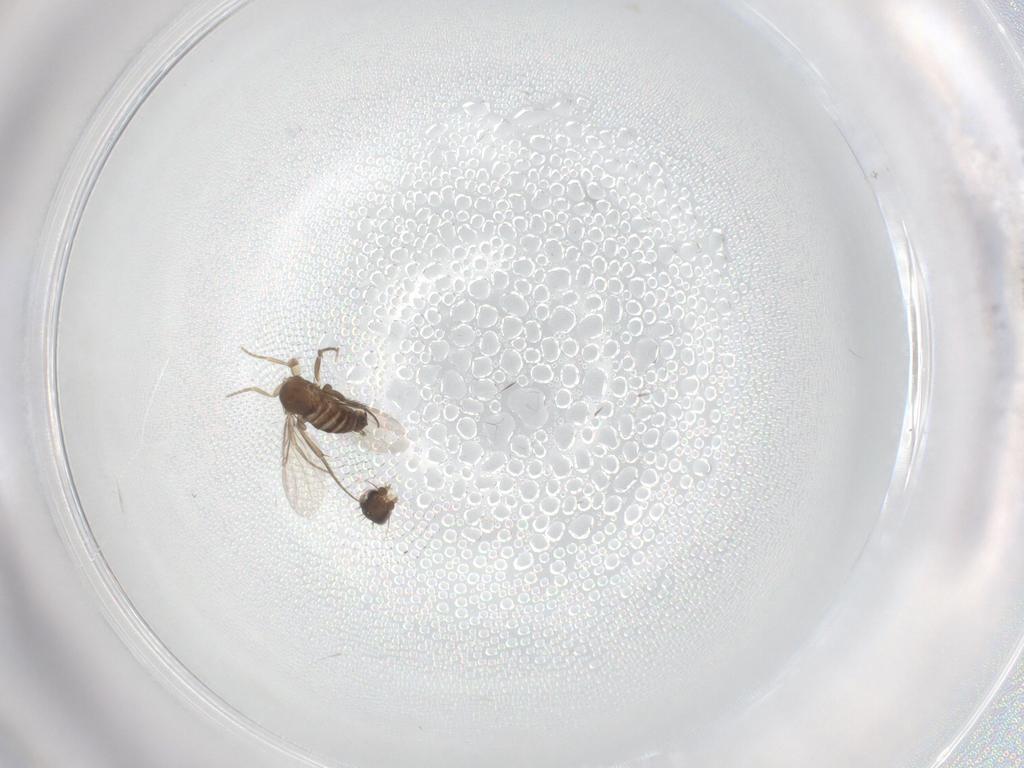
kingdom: Animalia
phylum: Arthropoda
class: Insecta
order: Diptera
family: Phoridae
